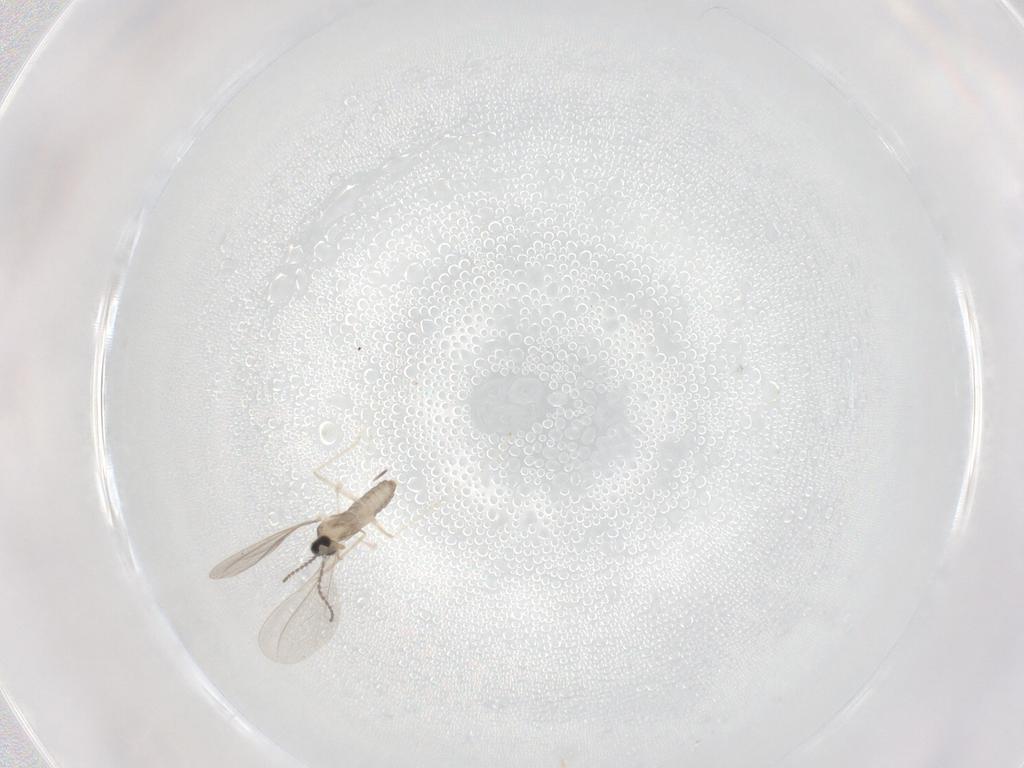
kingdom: Animalia
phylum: Arthropoda
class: Insecta
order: Diptera
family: Cecidomyiidae
